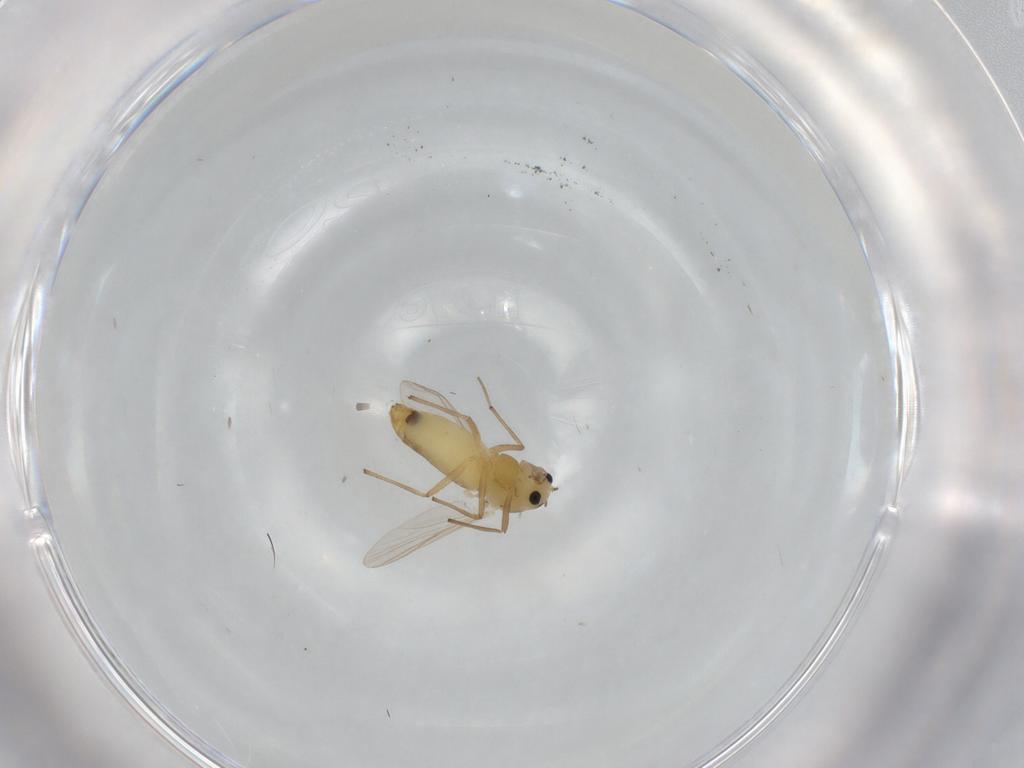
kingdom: Animalia
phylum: Arthropoda
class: Insecta
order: Diptera
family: Chironomidae
